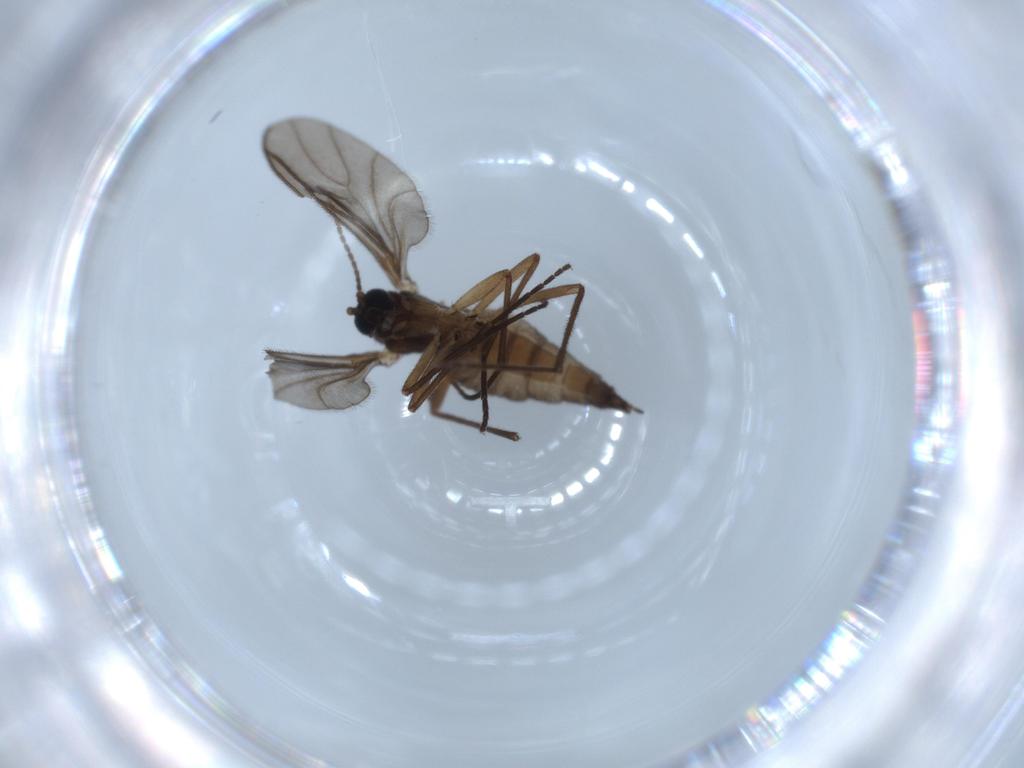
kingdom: Animalia
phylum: Arthropoda
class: Insecta
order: Diptera
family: Sciaridae
